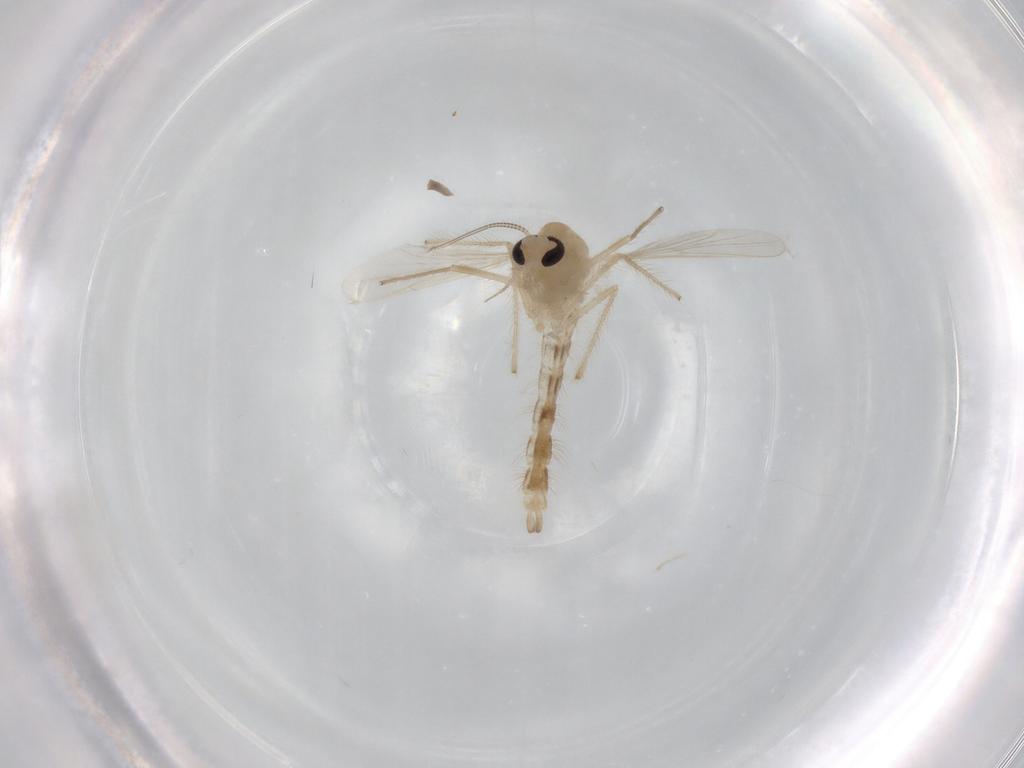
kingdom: Animalia
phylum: Arthropoda
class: Insecta
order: Diptera
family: Chironomidae
